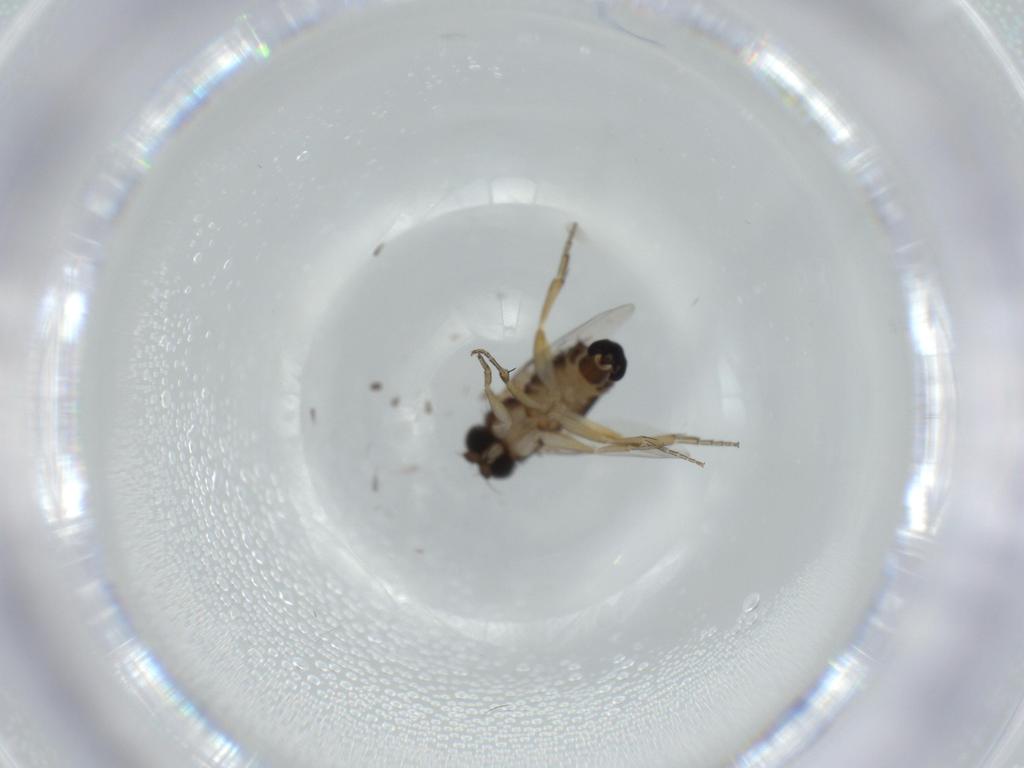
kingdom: Animalia
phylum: Arthropoda
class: Insecta
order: Diptera
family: Phoridae
